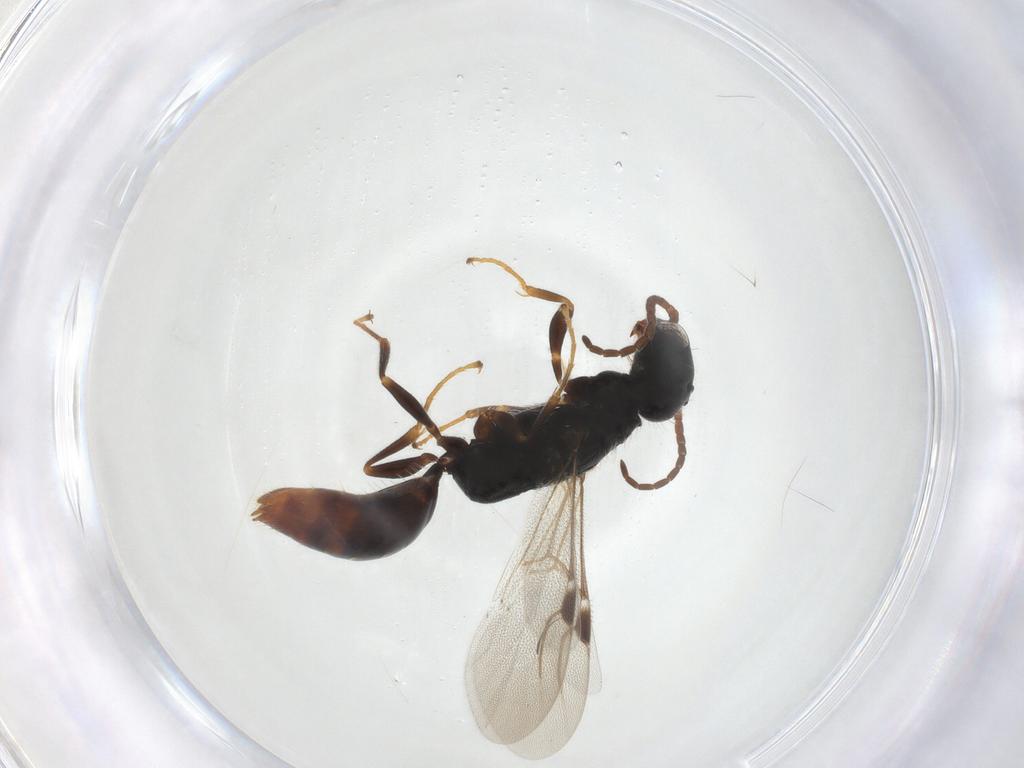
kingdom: Animalia
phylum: Arthropoda
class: Insecta
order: Hymenoptera
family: Bethylidae
